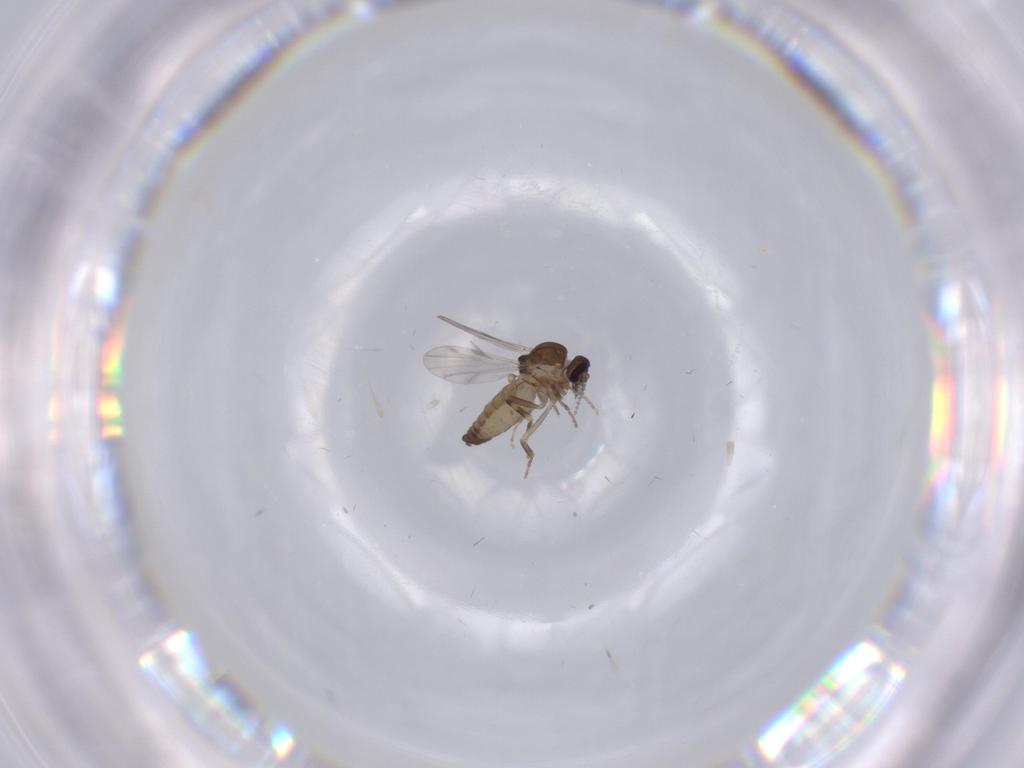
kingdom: Animalia
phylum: Arthropoda
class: Insecta
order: Diptera
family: Ceratopogonidae
